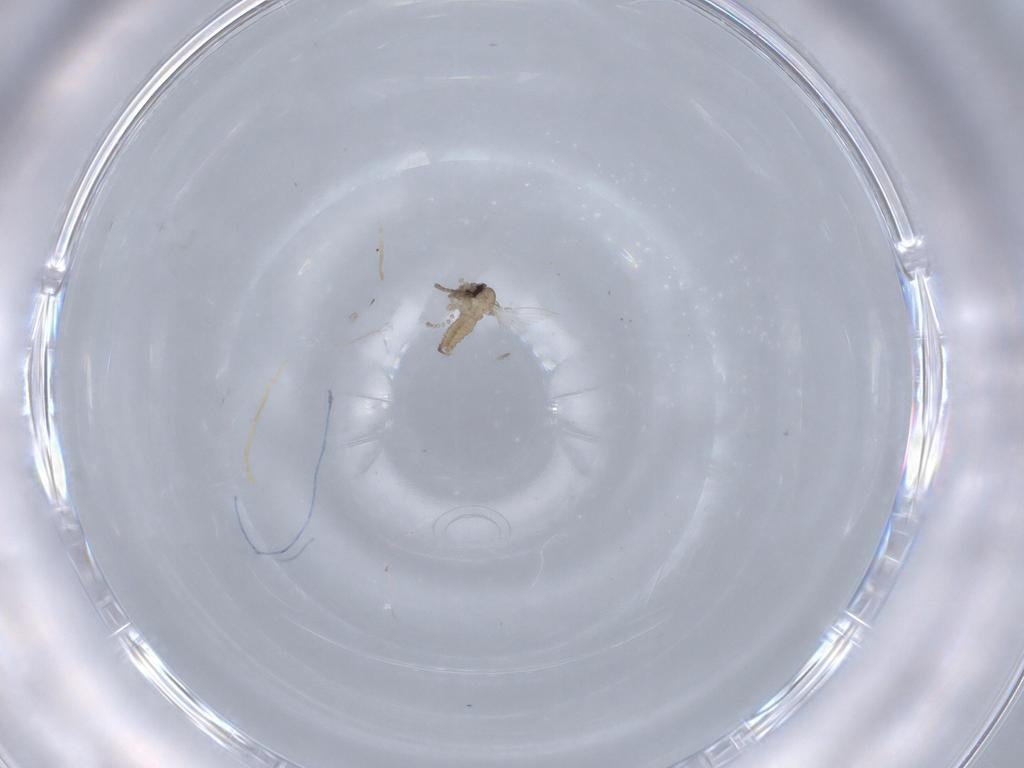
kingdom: Animalia
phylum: Arthropoda
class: Insecta
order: Diptera
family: Psychodidae
